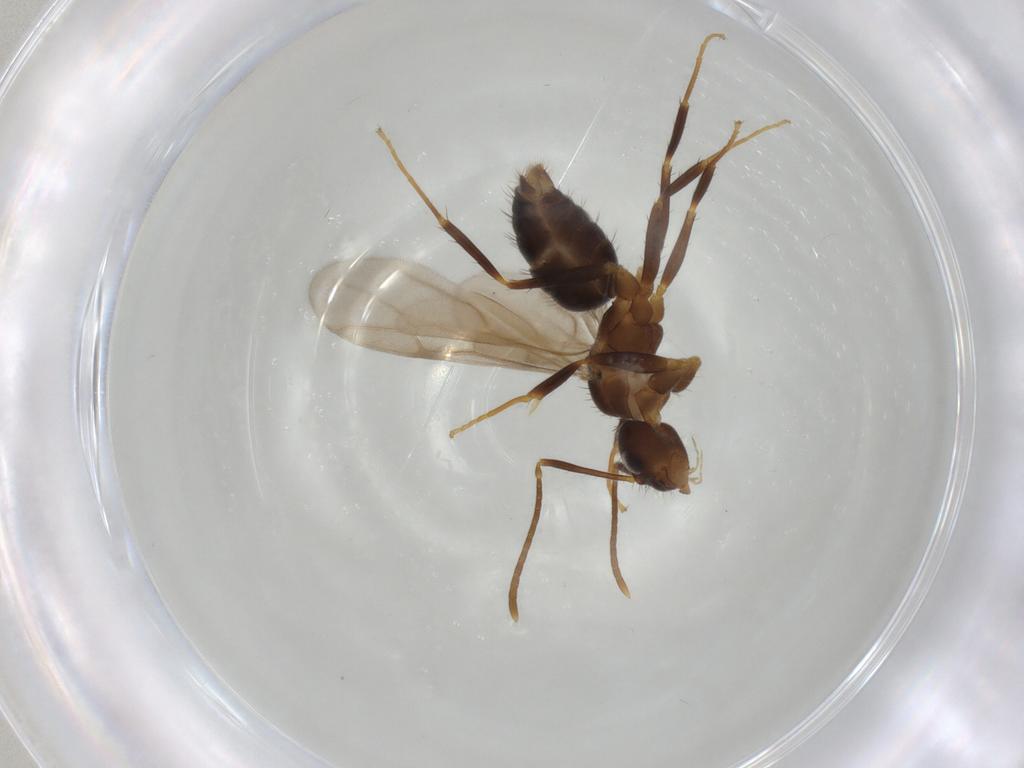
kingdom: Animalia
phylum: Arthropoda
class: Insecta
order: Hymenoptera
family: Formicidae
